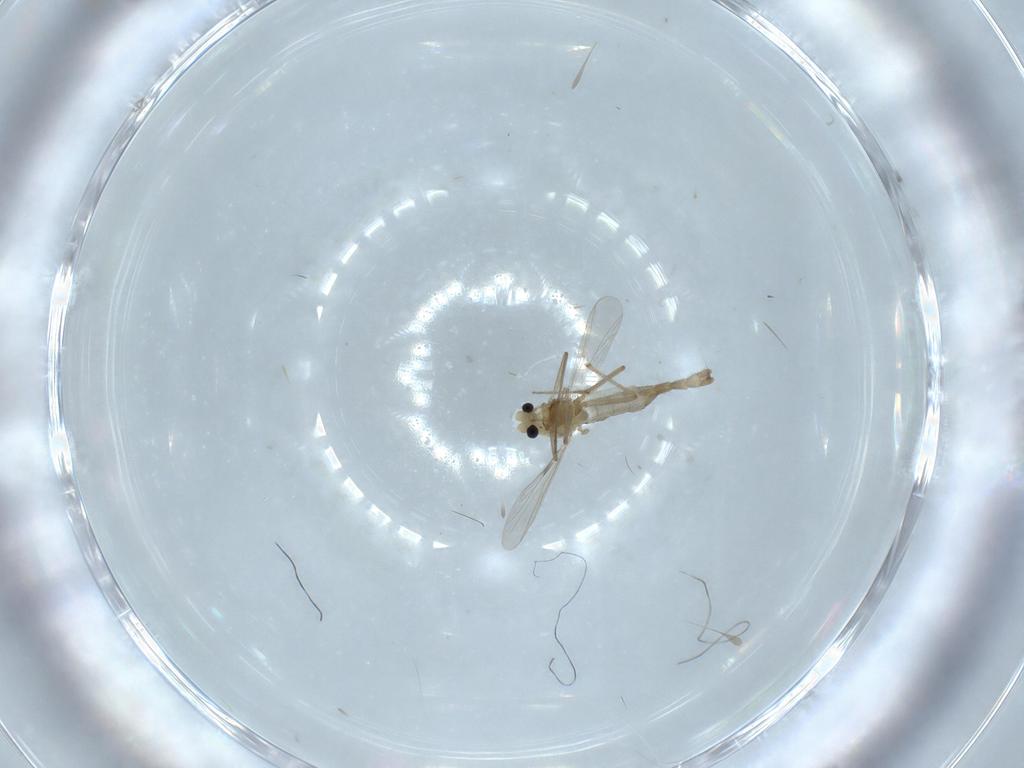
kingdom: Animalia
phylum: Arthropoda
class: Insecta
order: Diptera
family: Chironomidae
